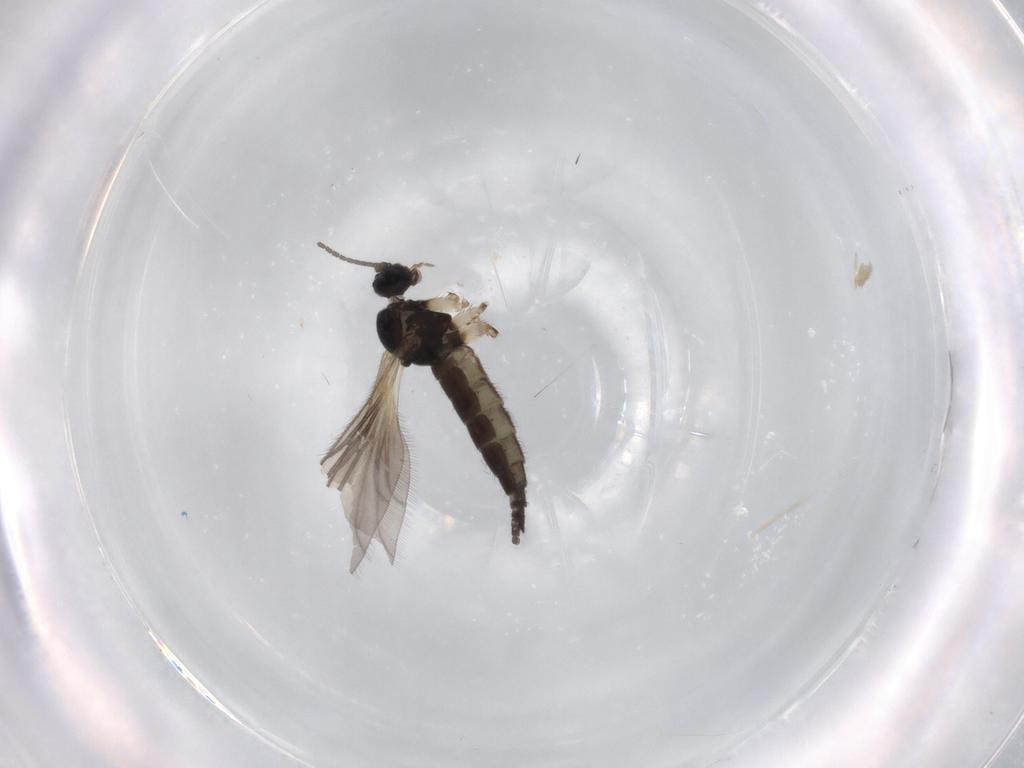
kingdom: Animalia
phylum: Arthropoda
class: Insecta
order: Diptera
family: Sciaridae
